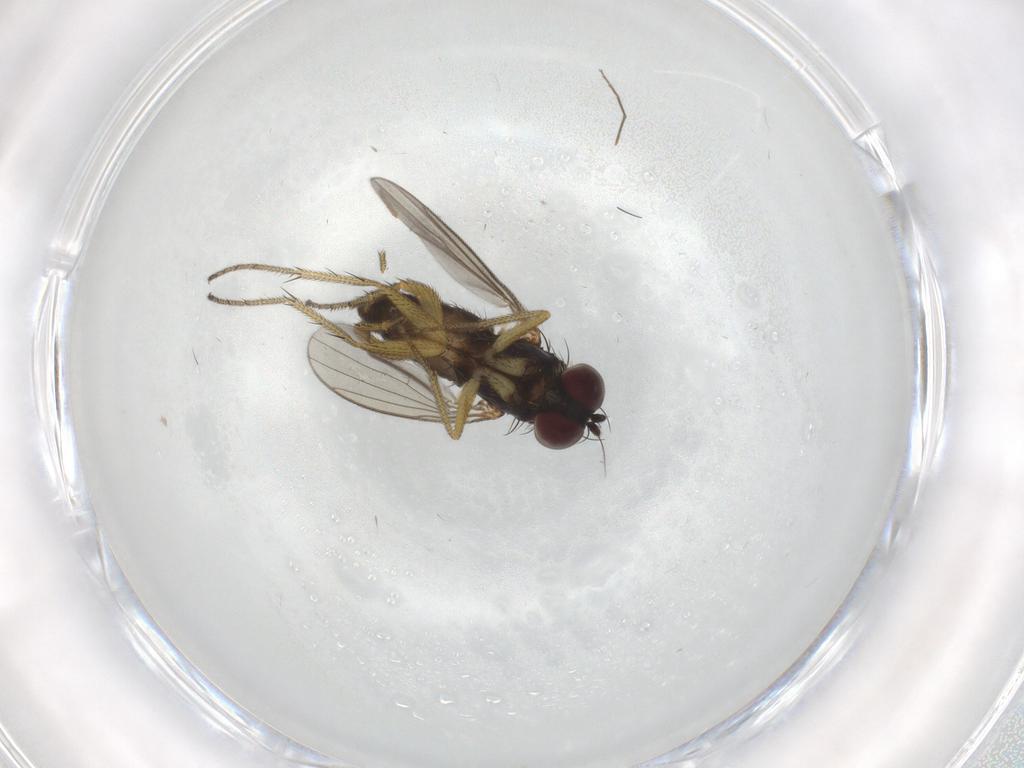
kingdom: Animalia
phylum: Arthropoda
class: Insecta
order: Diptera
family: Dolichopodidae
